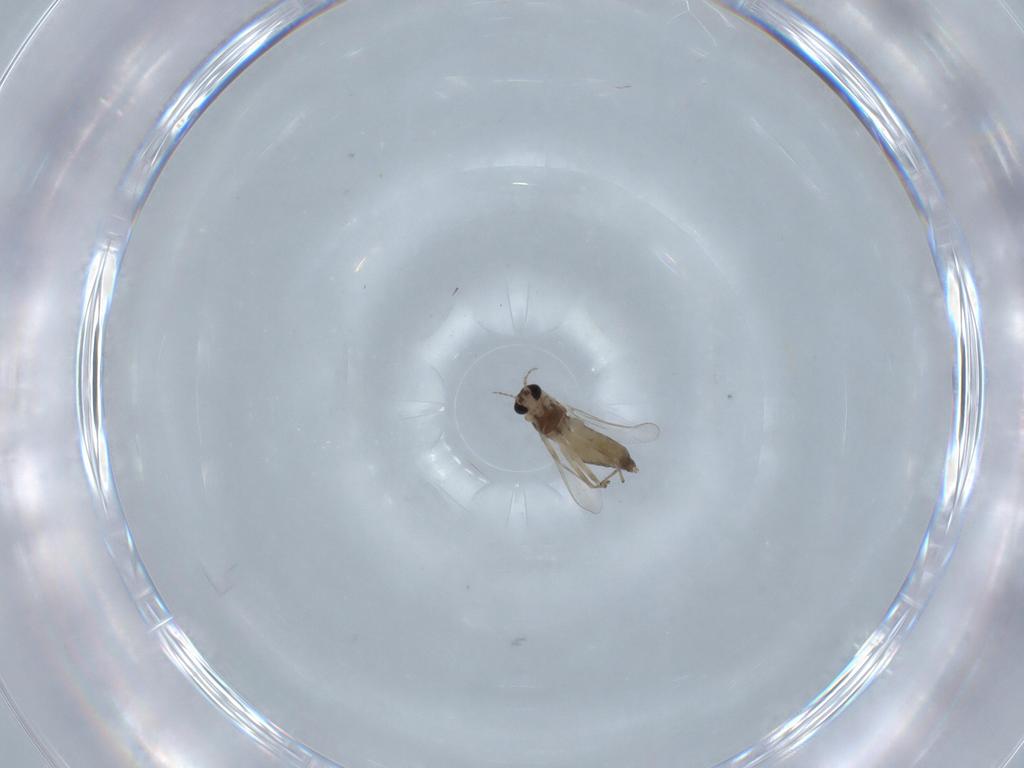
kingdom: Animalia
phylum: Arthropoda
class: Insecta
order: Diptera
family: Chironomidae
